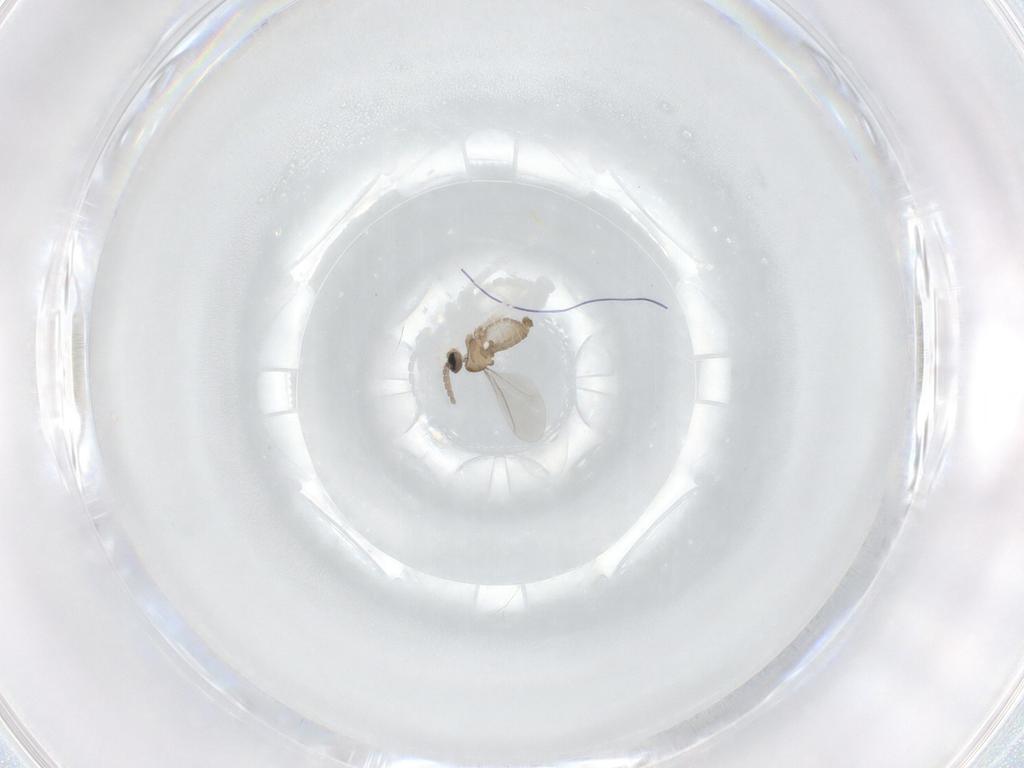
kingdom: Animalia
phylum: Arthropoda
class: Insecta
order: Diptera
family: Cecidomyiidae
